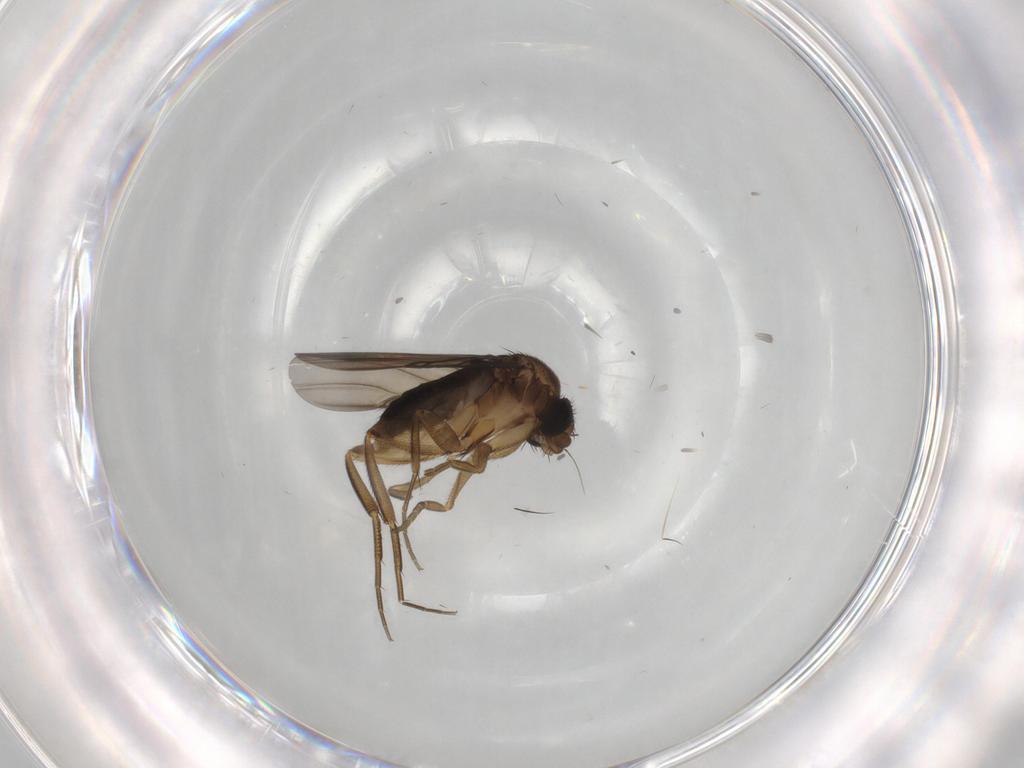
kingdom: Animalia
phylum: Arthropoda
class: Insecta
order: Diptera
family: Phoridae
